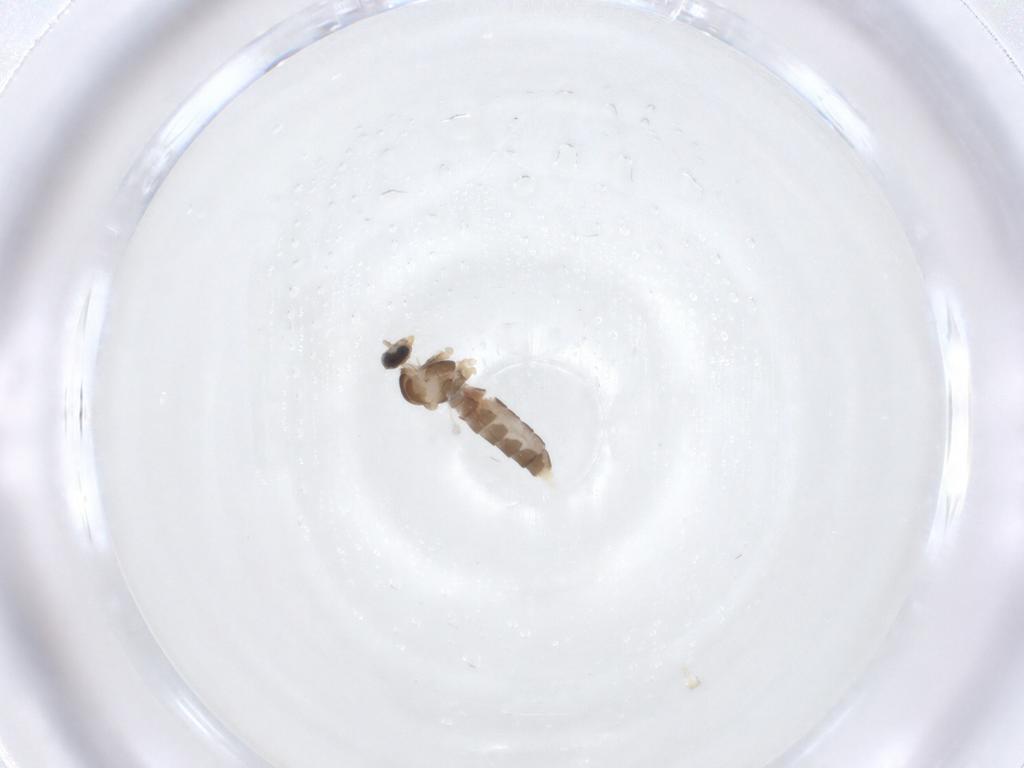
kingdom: Animalia
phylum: Arthropoda
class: Insecta
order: Diptera
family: Cecidomyiidae
